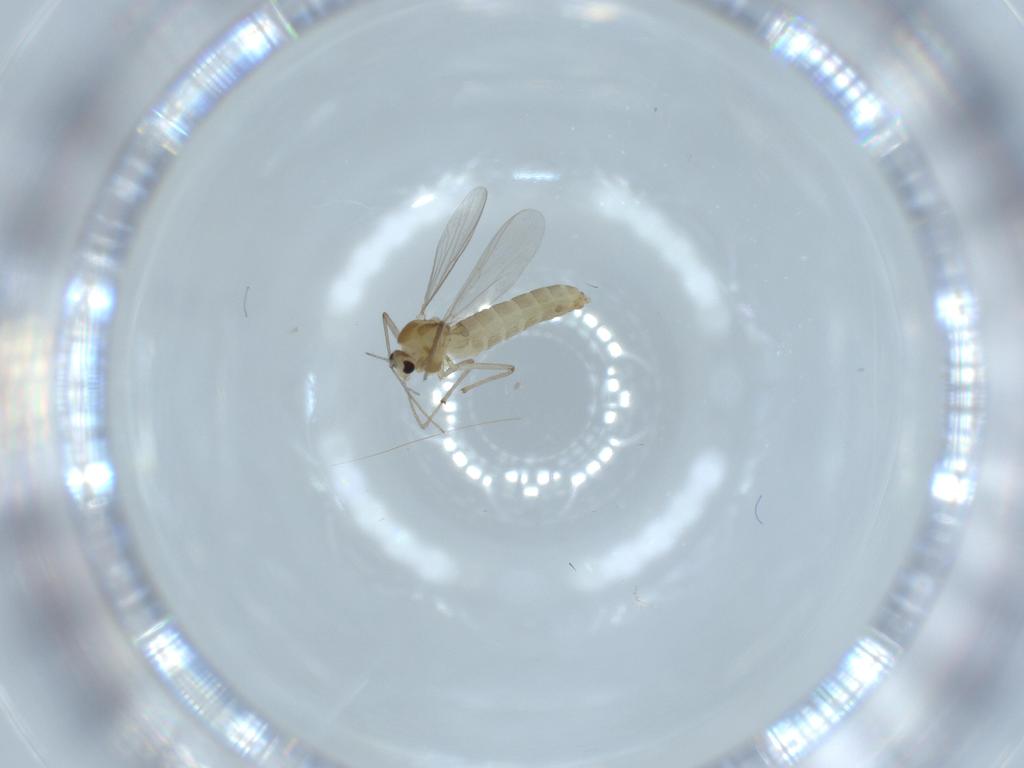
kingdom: Animalia
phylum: Arthropoda
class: Insecta
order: Diptera
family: Chironomidae
